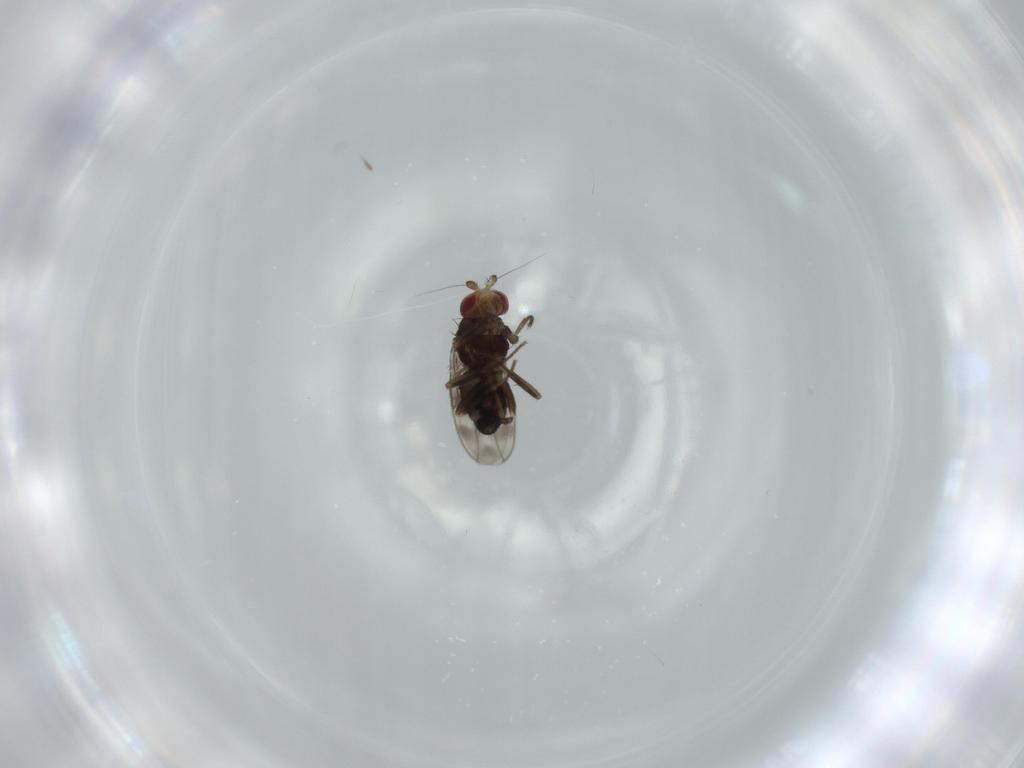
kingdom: Animalia
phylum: Arthropoda
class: Insecta
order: Diptera
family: Sphaeroceridae
